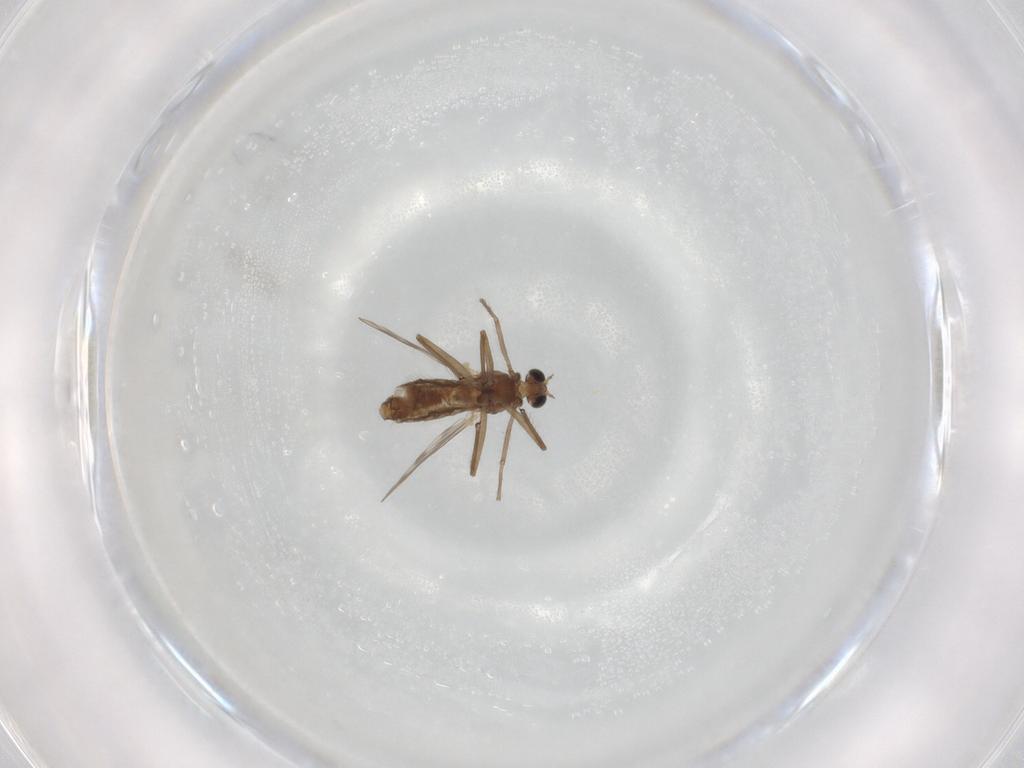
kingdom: Animalia
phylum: Arthropoda
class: Insecta
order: Diptera
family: Chironomidae
